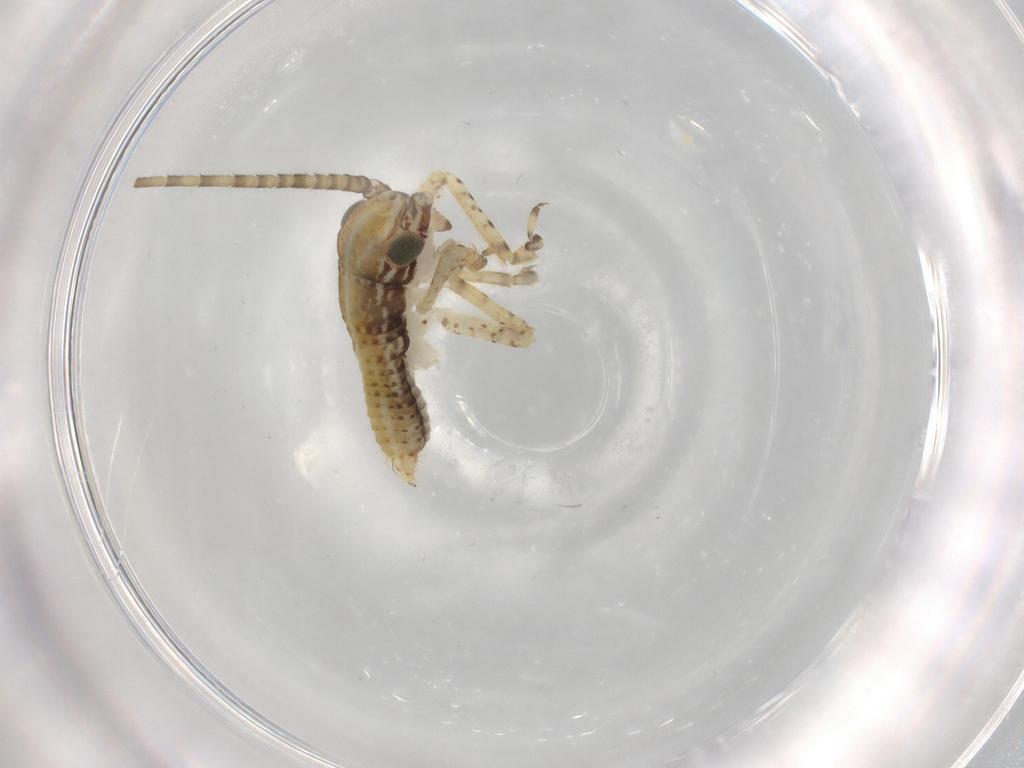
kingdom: Animalia
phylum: Arthropoda
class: Insecta
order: Orthoptera
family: Gryllidae
